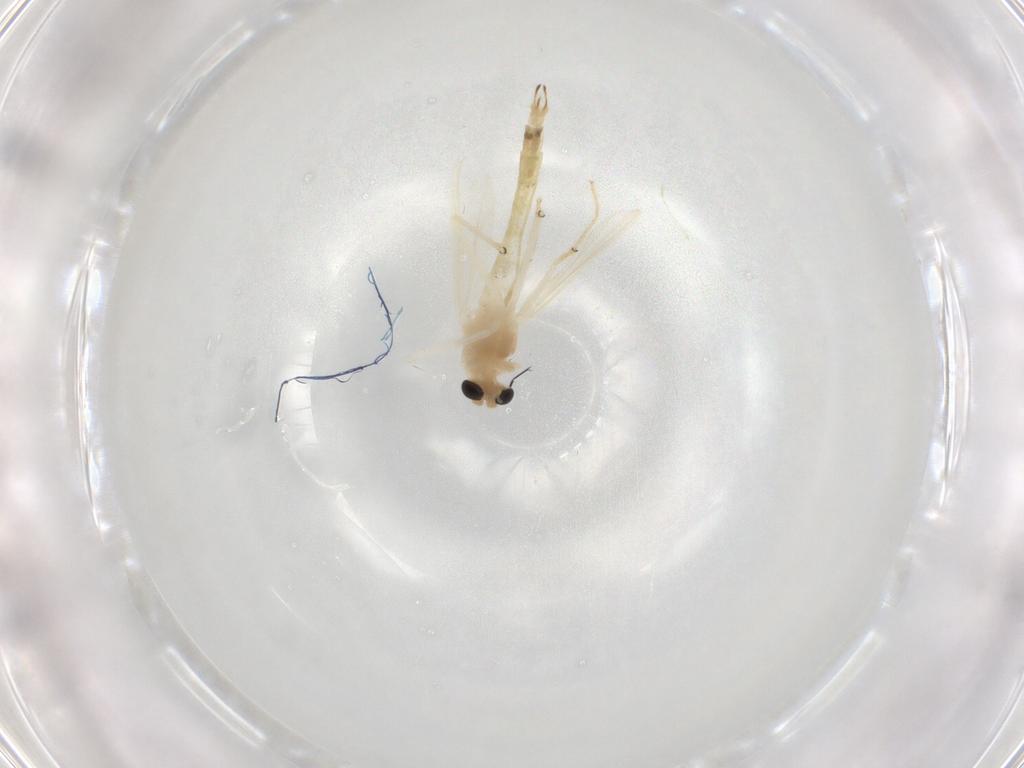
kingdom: Animalia
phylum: Arthropoda
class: Insecta
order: Diptera
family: Chironomidae
